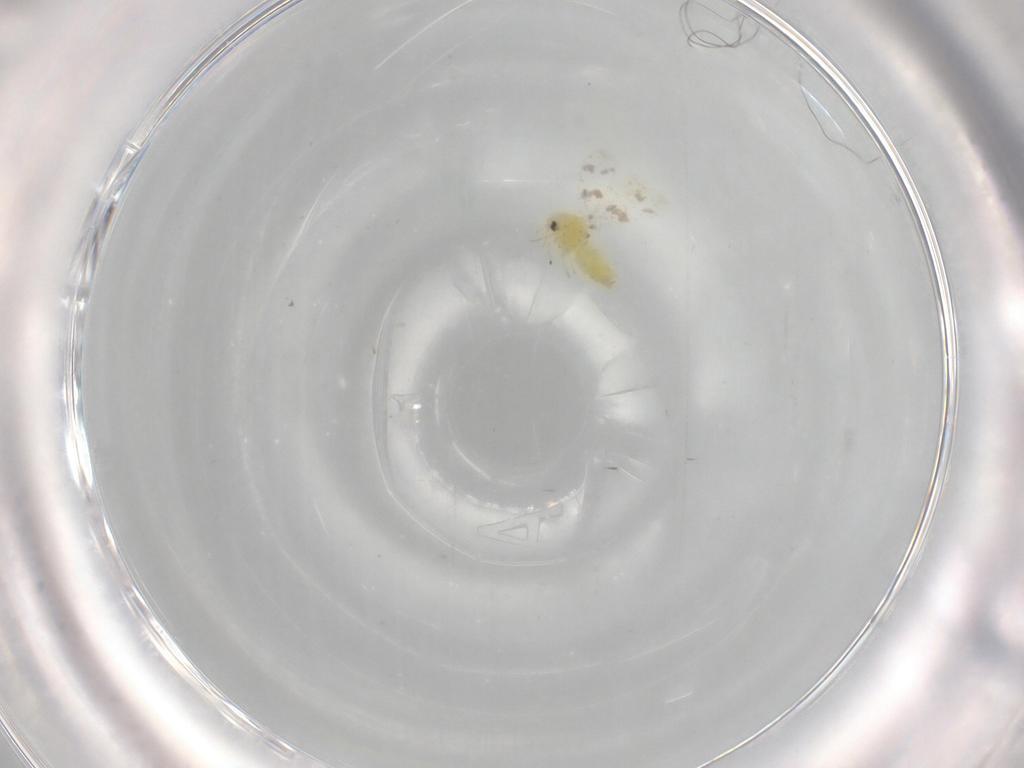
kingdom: Animalia
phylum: Arthropoda
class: Insecta
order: Hemiptera
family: Aleyrodidae
